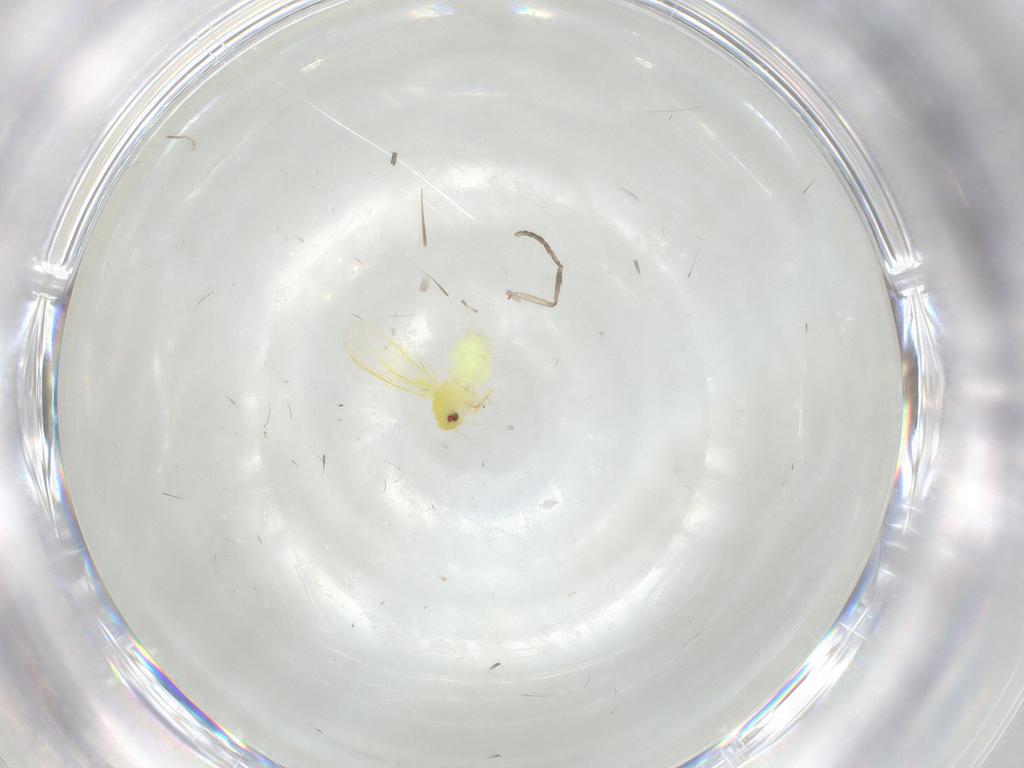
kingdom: Animalia
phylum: Arthropoda
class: Insecta
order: Hemiptera
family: Aleyrodidae
